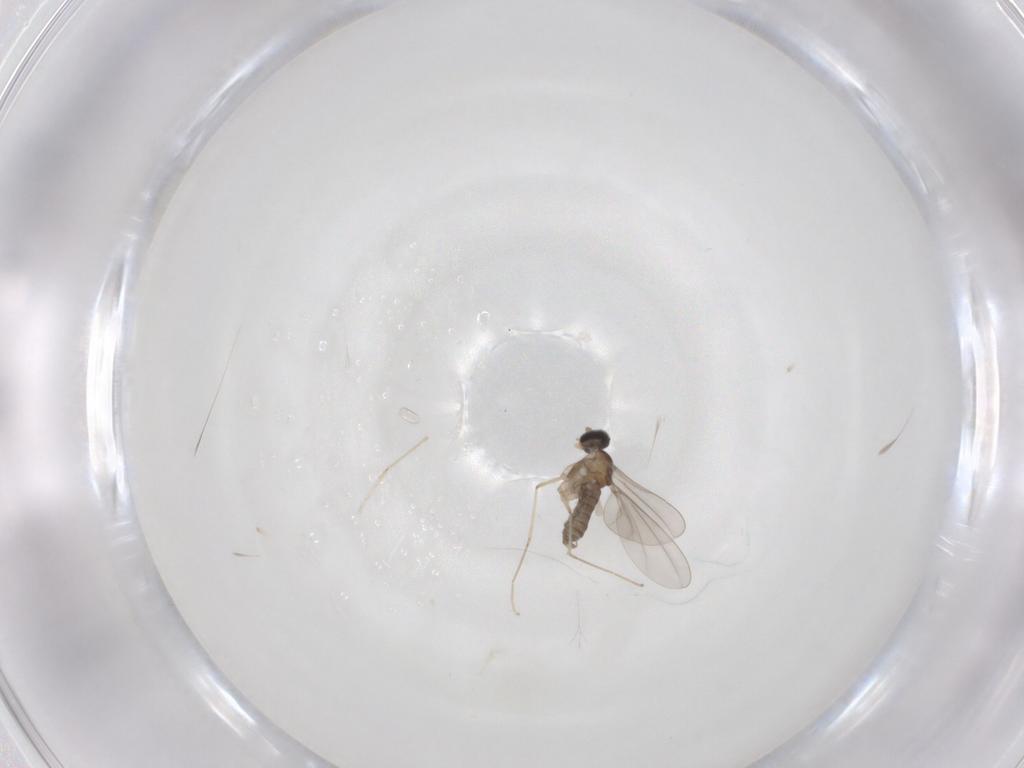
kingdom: Animalia
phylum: Arthropoda
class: Insecta
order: Diptera
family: Cecidomyiidae
